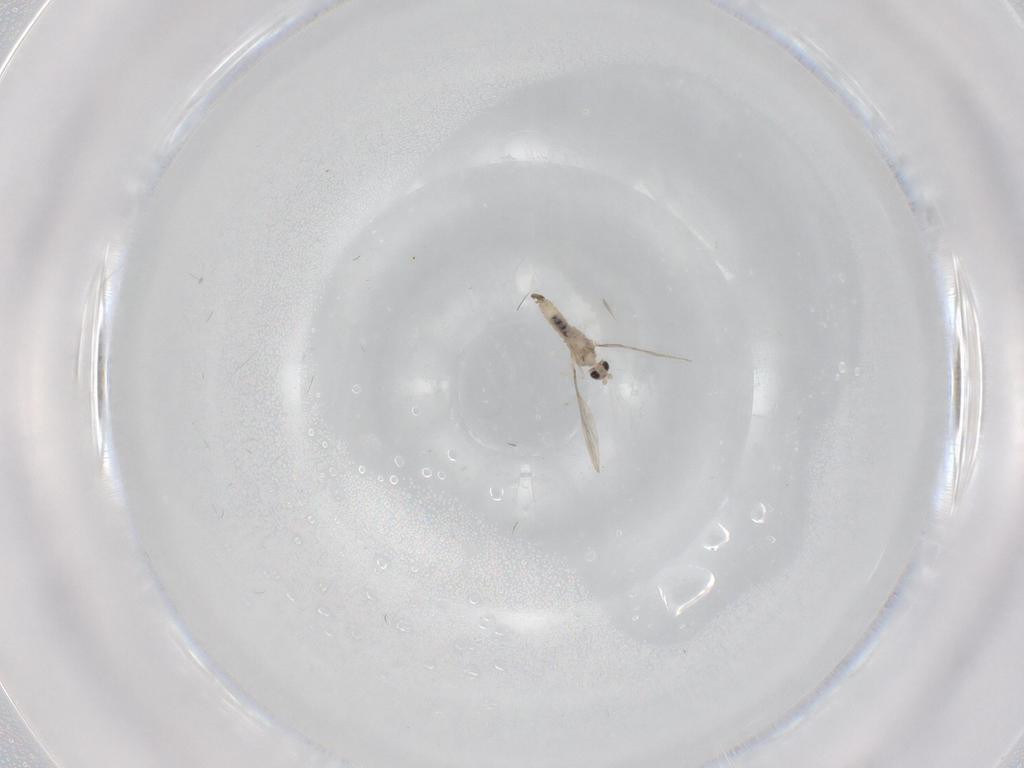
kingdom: Animalia
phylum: Arthropoda
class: Insecta
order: Diptera
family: Cecidomyiidae
